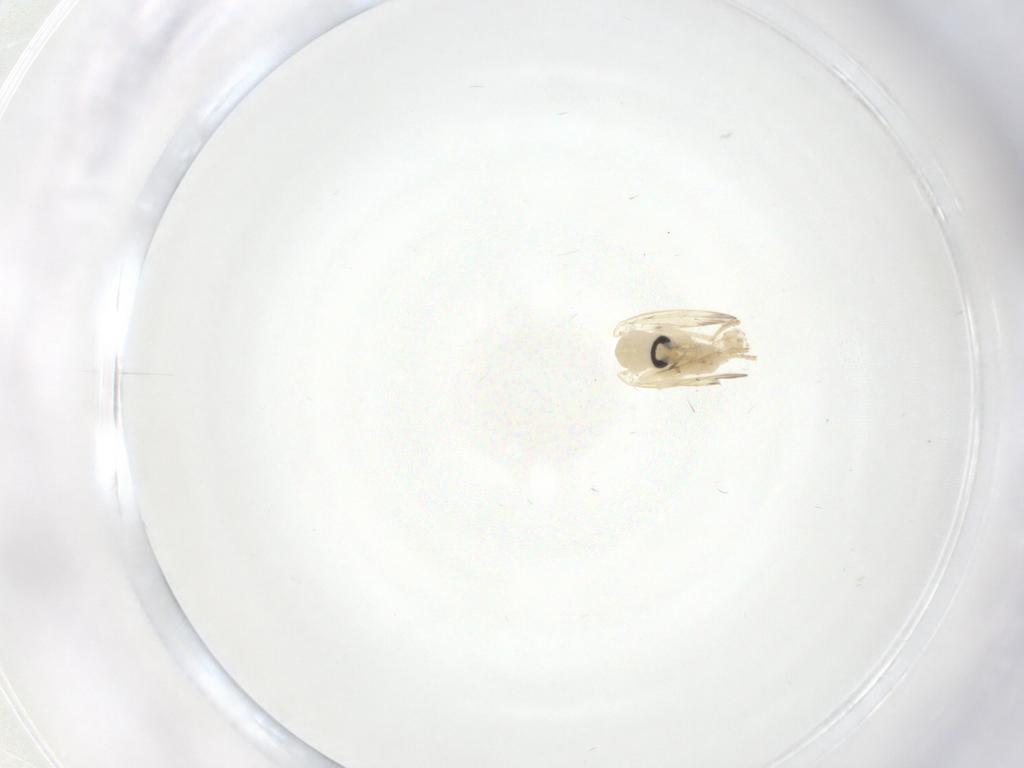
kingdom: Animalia
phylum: Arthropoda
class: Insecta
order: Diptera
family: Psychodidae
